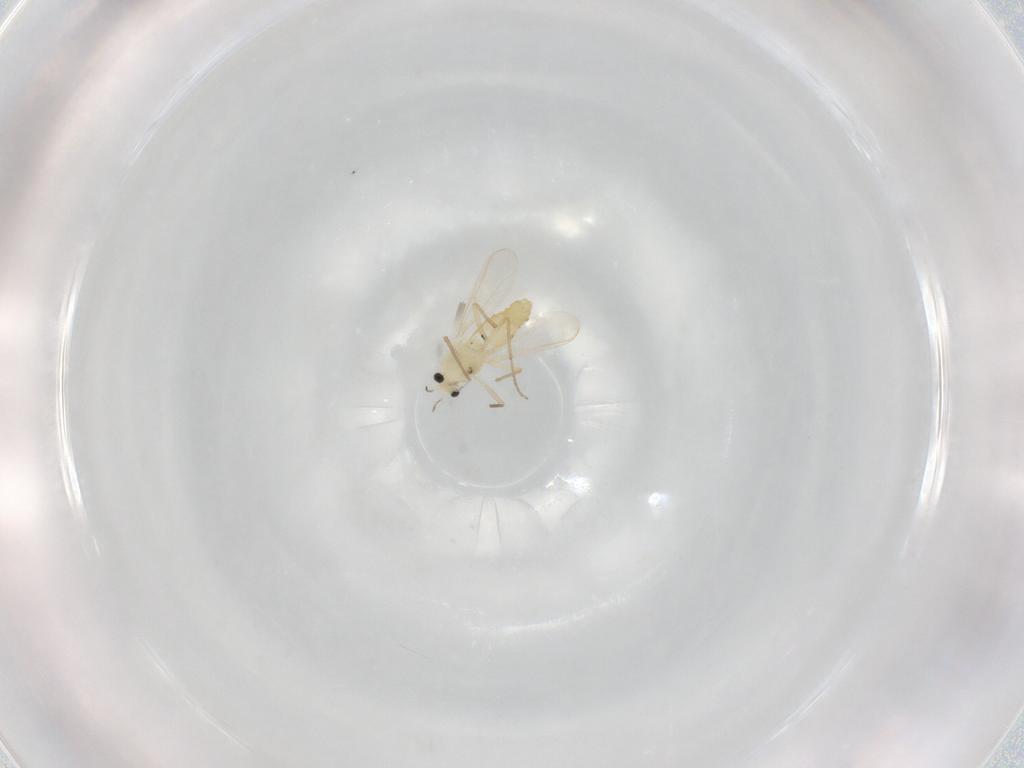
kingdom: Animalia
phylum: Arthropoda
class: Insecta
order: Diptera
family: Chironomidae
